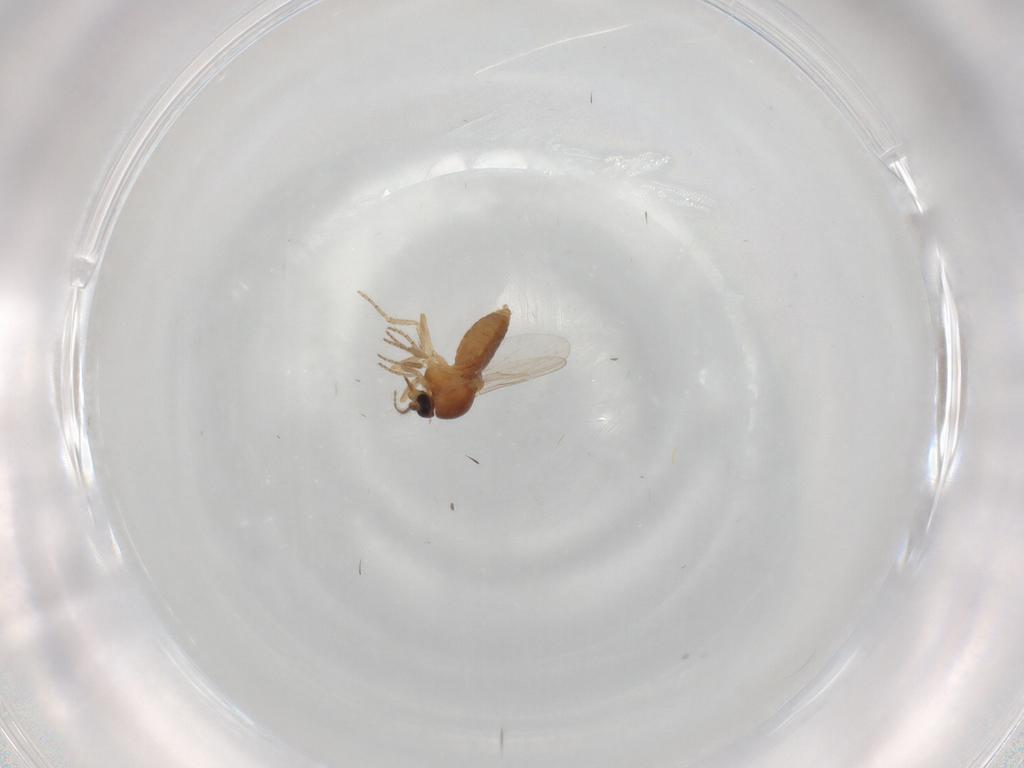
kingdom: Animalia
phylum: Arthropoda
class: Insecta
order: Diptera
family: Ceratopogonidae
